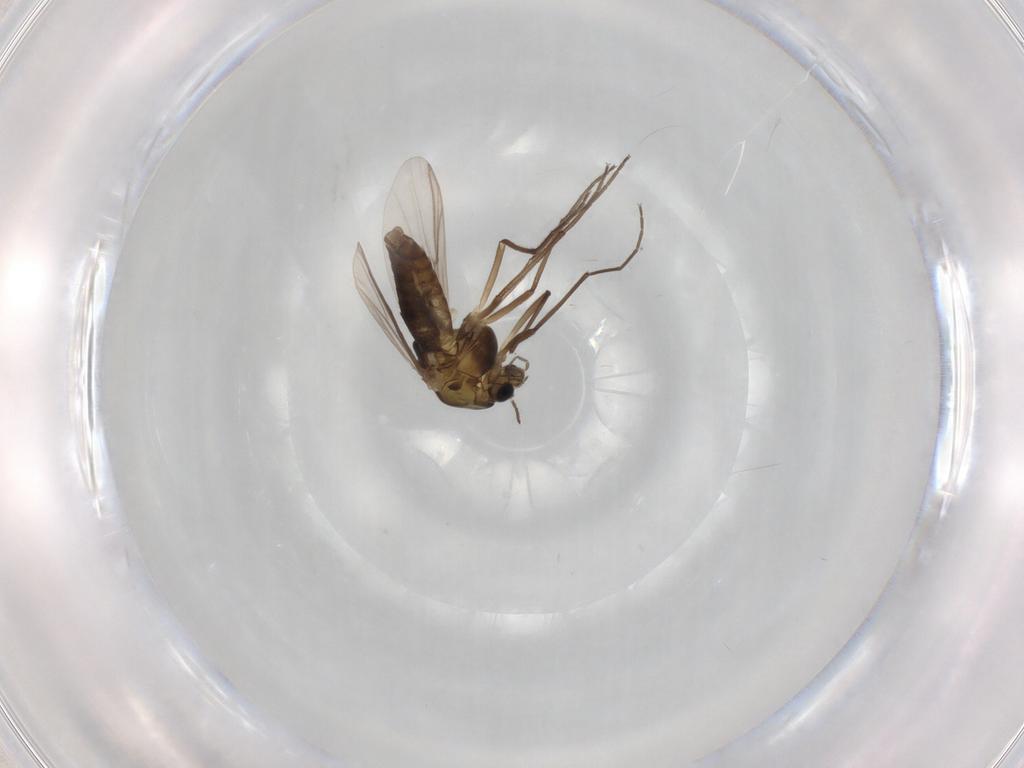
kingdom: Animalia
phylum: Arthropoda
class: Insecta
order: Diptera
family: Chironomidae
